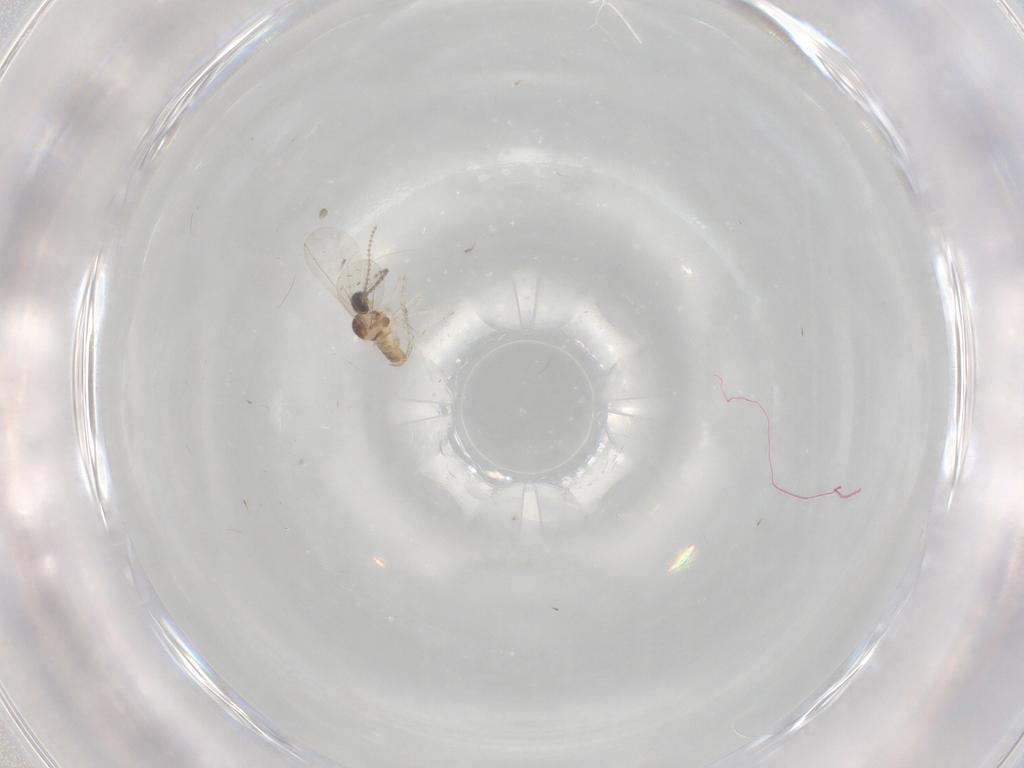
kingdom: Animalia
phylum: Arthropoda
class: Insecta
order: Diptera
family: Cecidomyiidae
